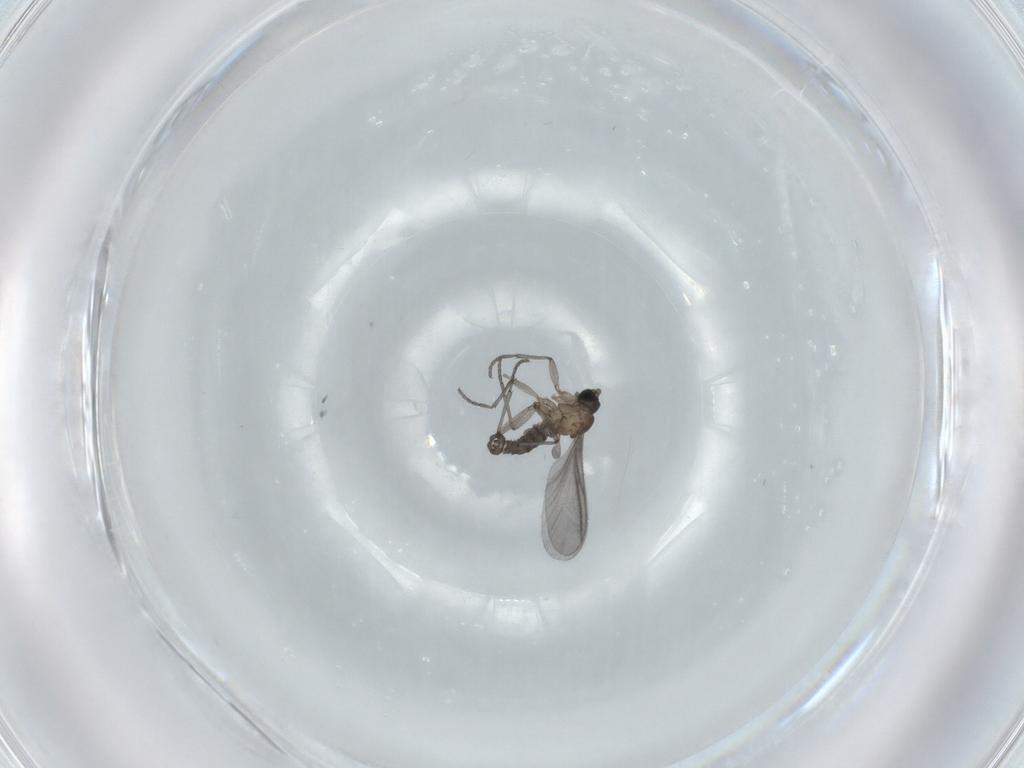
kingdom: Animalia
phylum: Arthropoda
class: Insecta
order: Diptera
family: Sciaridae
